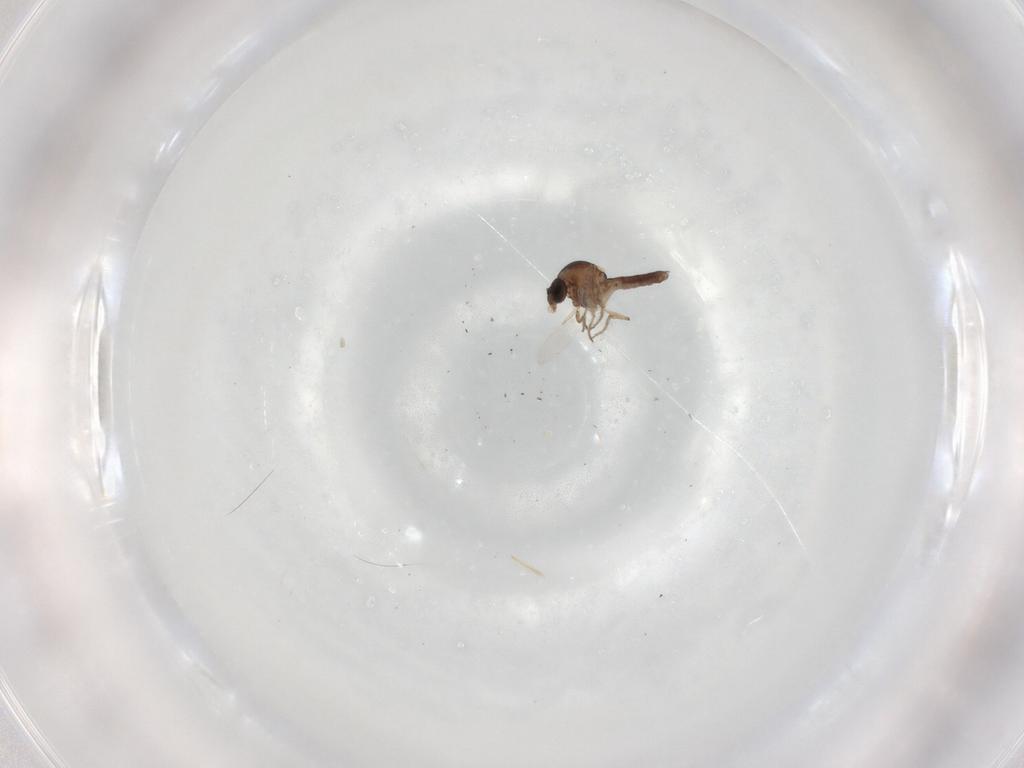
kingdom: Animalia
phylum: Arthropoda
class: Insecta
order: Diptera
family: Ceratopogonidae
